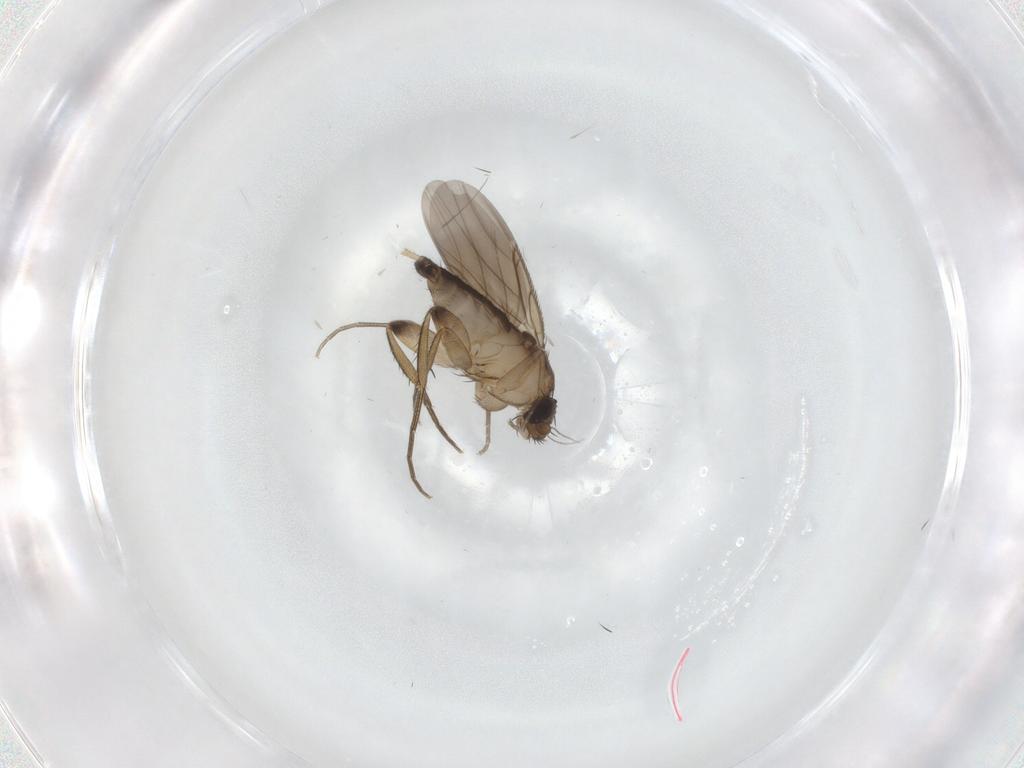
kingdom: Animalia
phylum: Arthropoda
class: Insecta
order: Diptera
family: Phoridae
